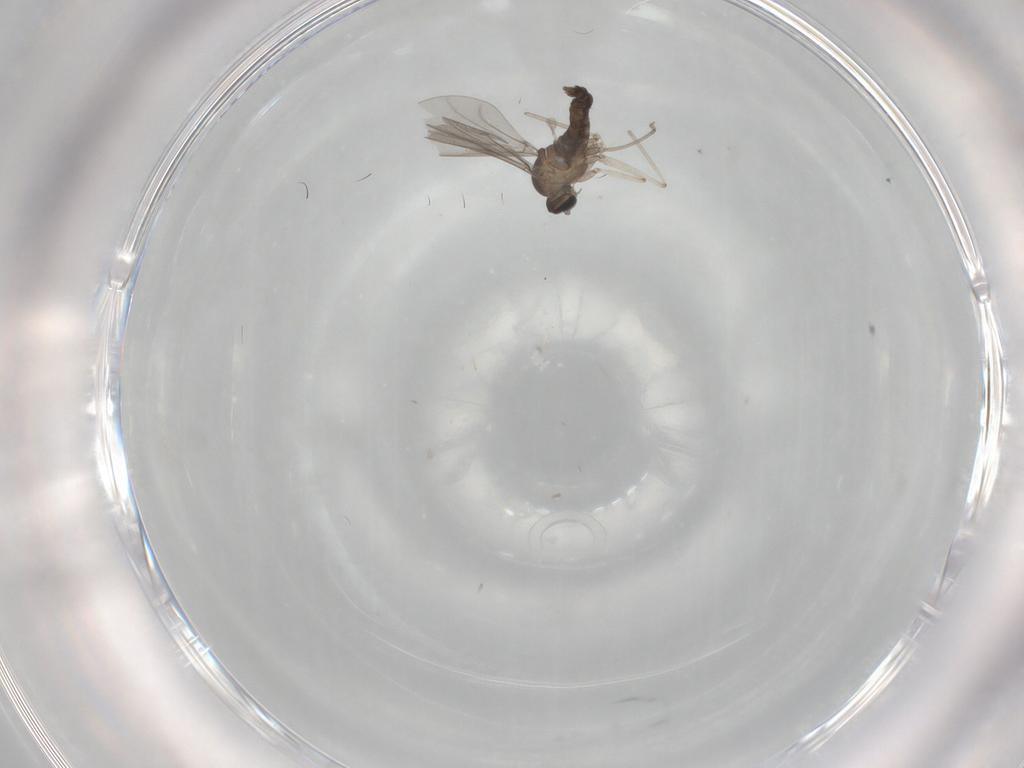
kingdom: Animalia
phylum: Arthropoda
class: Insecta
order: Diptera
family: Cecidomyiidae
